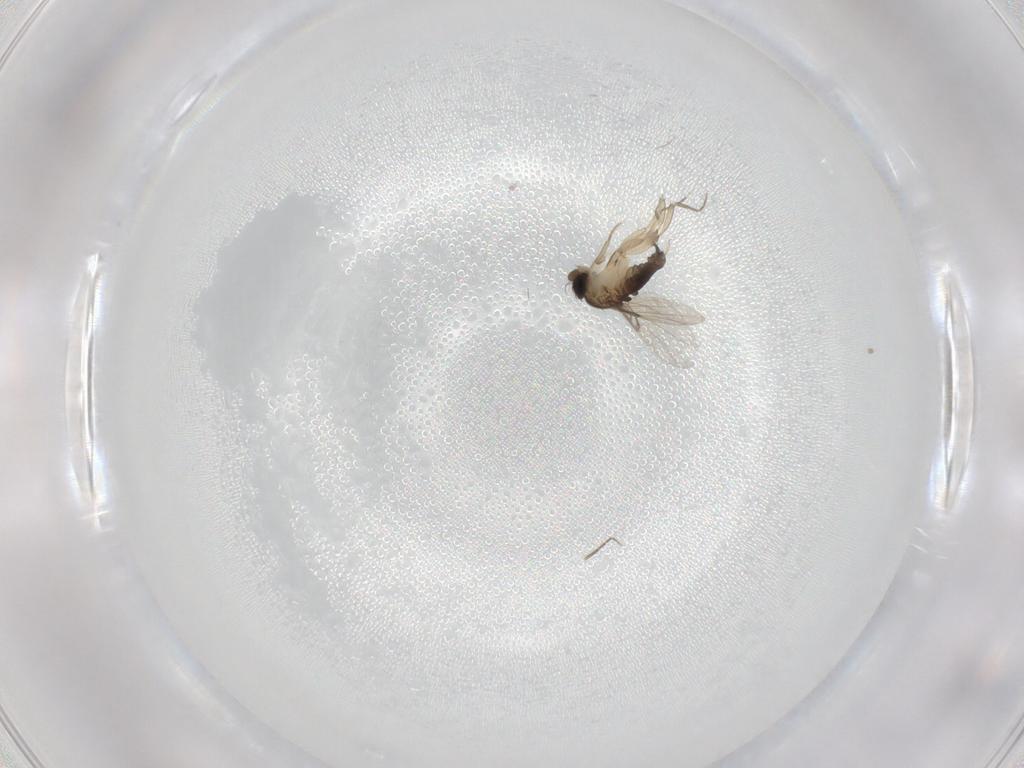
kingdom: Animalia
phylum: Arthropoda
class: Insecta
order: Diptera
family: Phoridae
